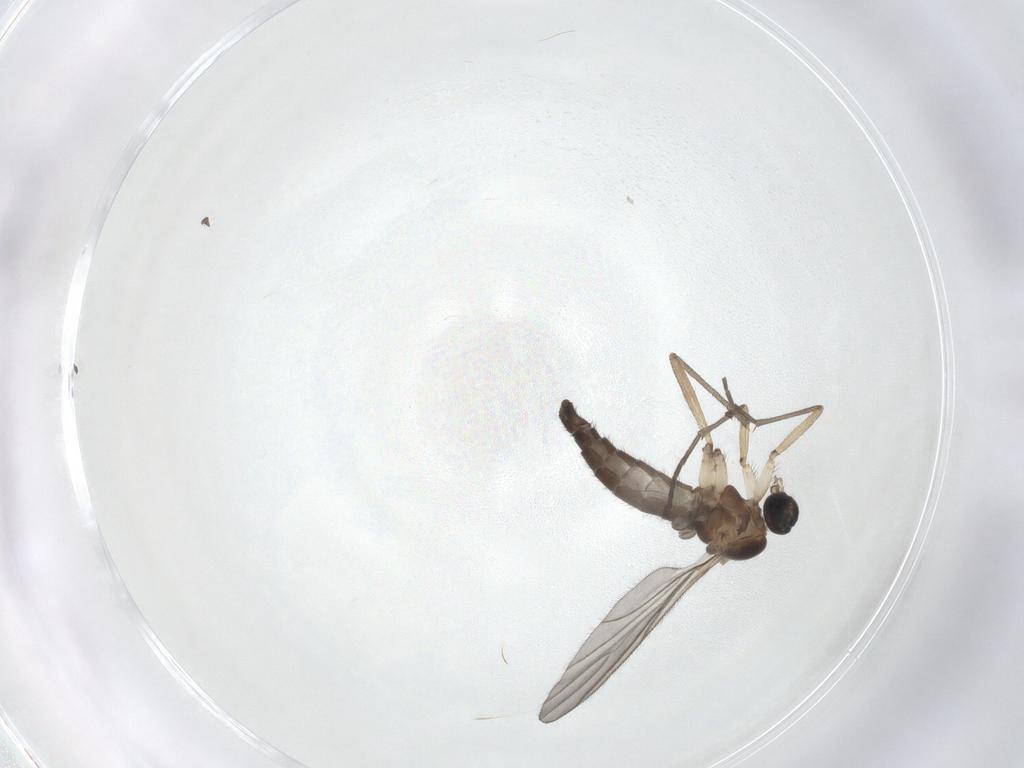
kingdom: Animalia
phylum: Arthropoda
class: Insecta
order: Diptera
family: Sciaridae
